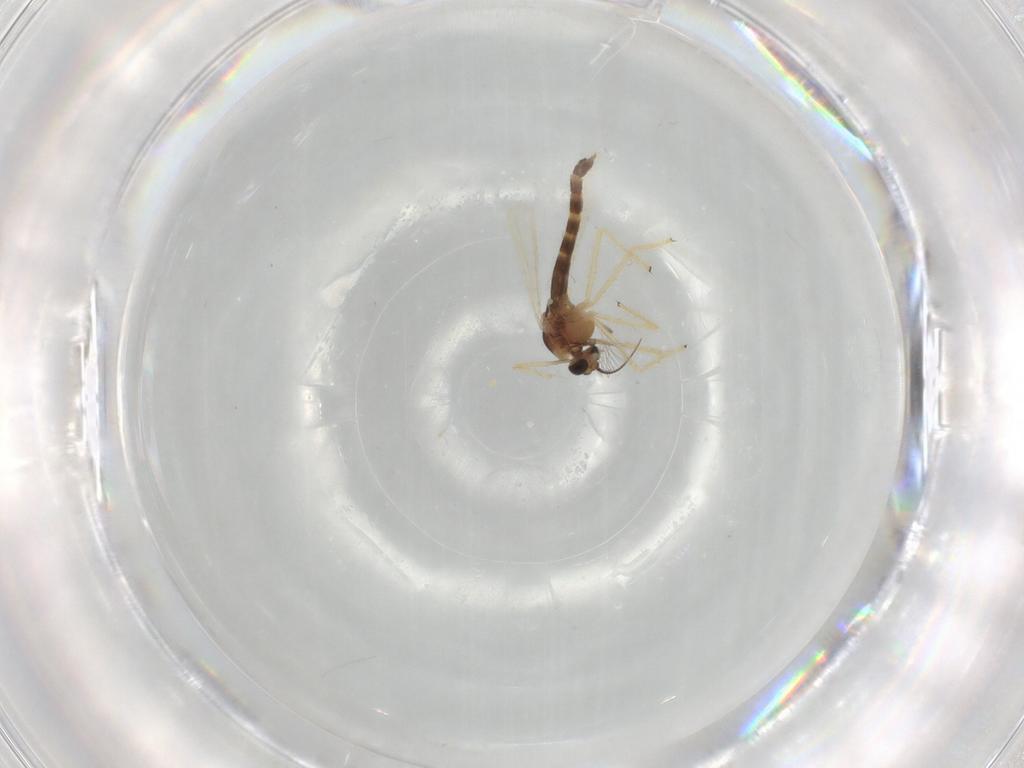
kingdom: Animalia
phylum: Arthropoda
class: Insecta
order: Diptera
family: Chironomidae
